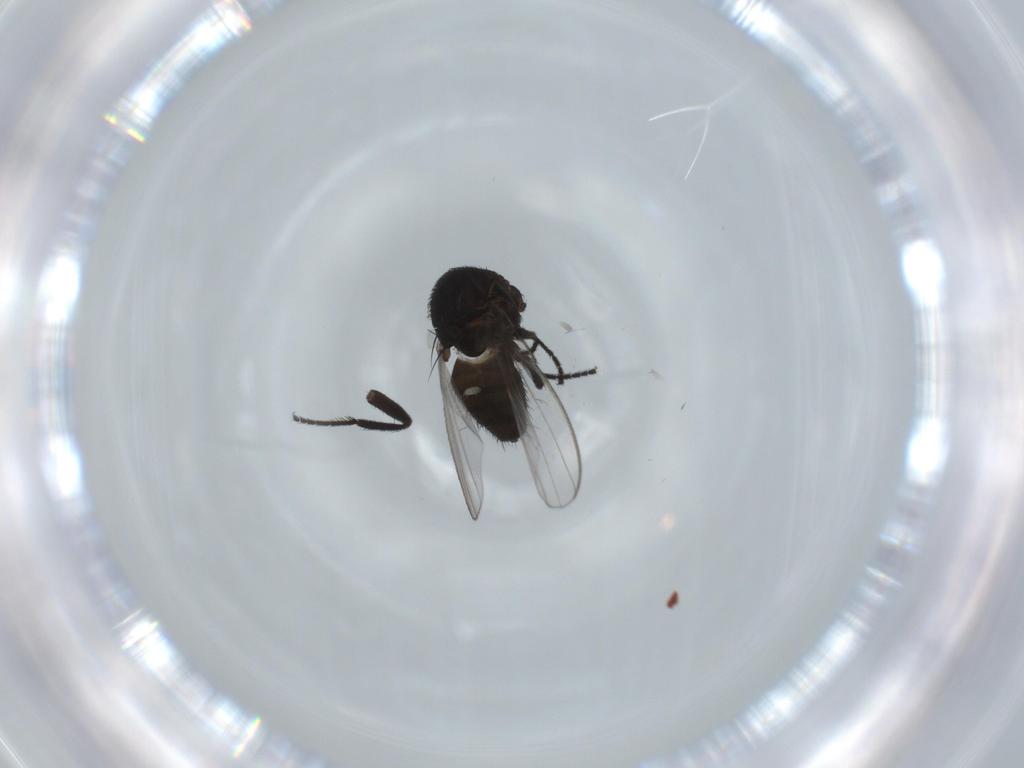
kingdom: Animalia
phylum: Arthropoda
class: Insecta
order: Diptera
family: Milichiidae
